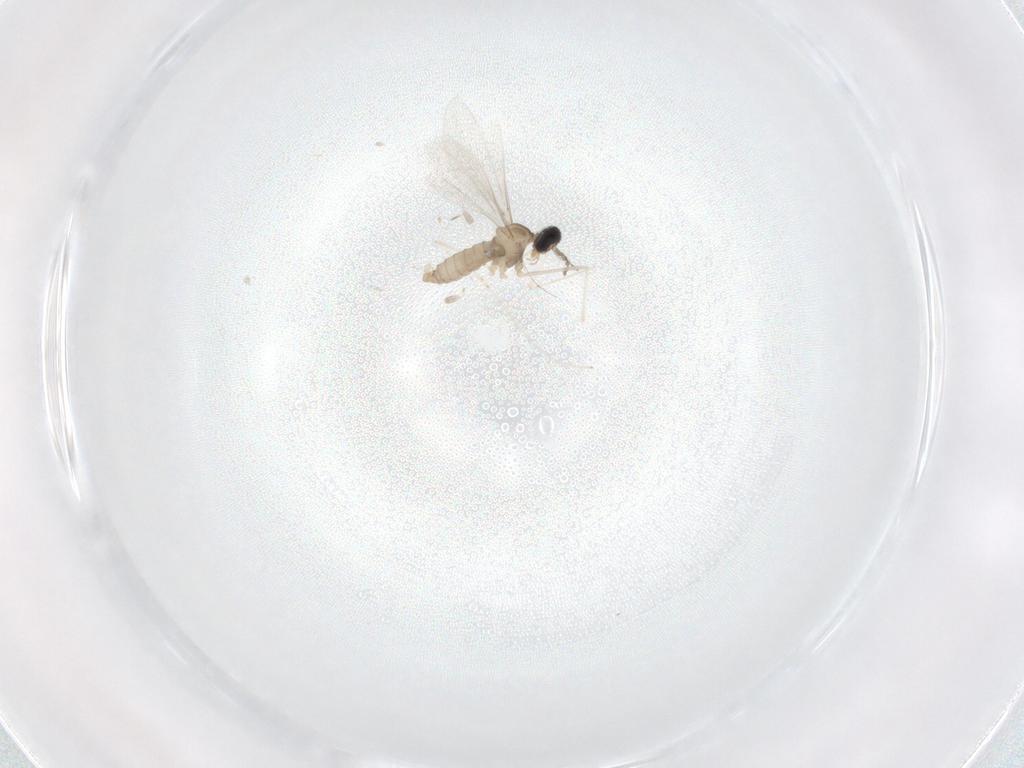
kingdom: Animalia
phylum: Arthropoda
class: Insecta
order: Diptera
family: Cecidomyiidae
